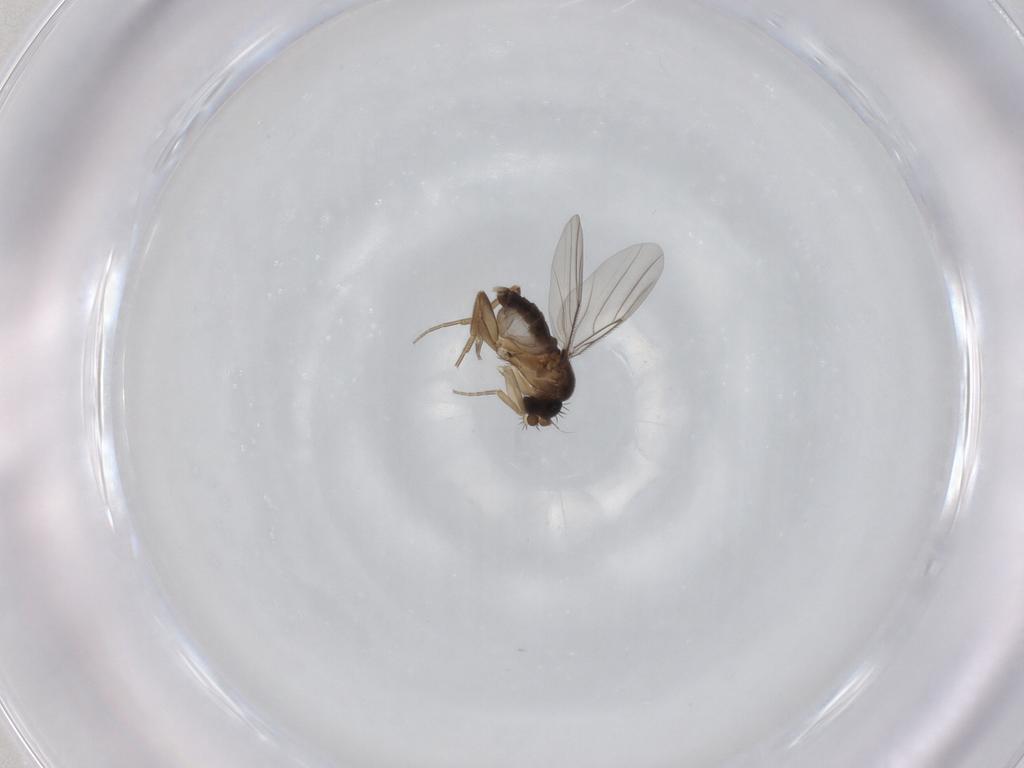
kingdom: Animalia
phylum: Arthropoda
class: Insecta
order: Diptera
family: Phoridae
